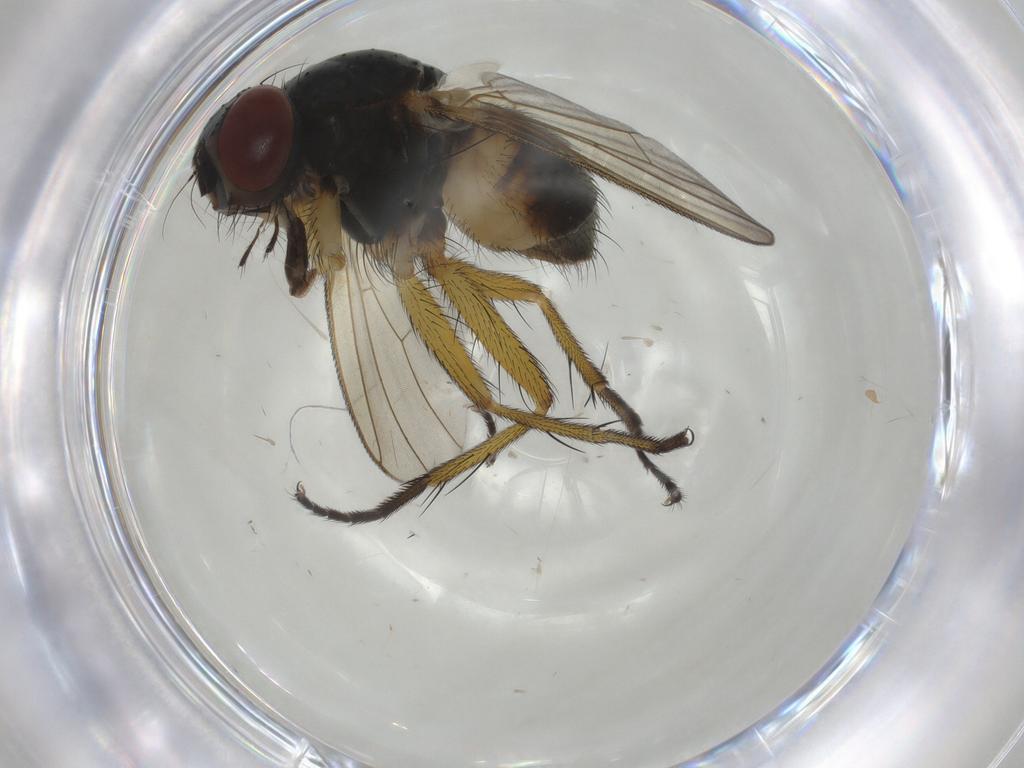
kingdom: Animalia
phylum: Arthropoda
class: Insecta
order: Diptera
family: Muscidae
